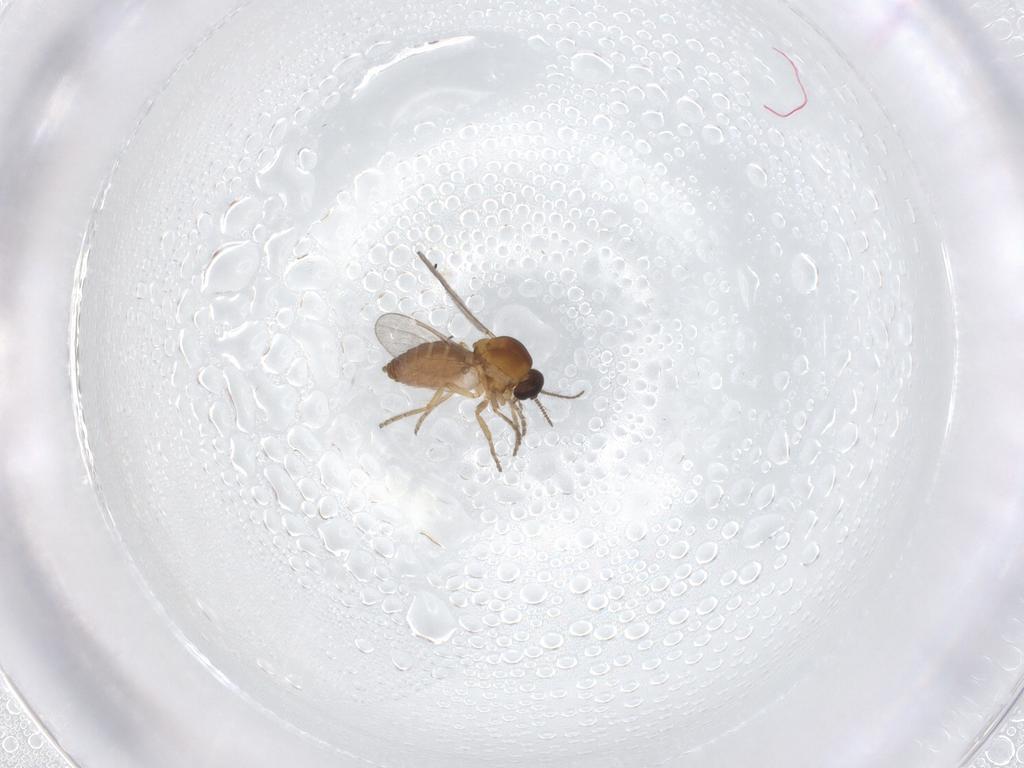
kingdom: Animalia
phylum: Arthropoda
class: Insecta
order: Diptera
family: Ceratopogonidae
